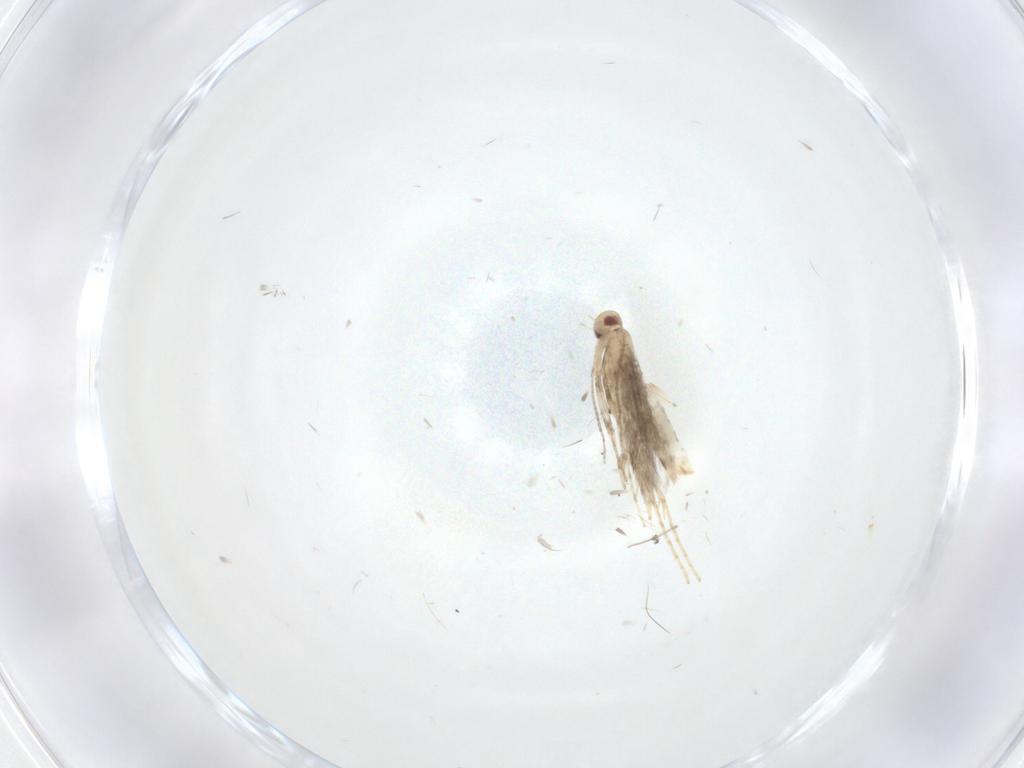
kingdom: Animalia
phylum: Arthropoda
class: Insecta
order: Lepidoptera
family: Gracillariidae
